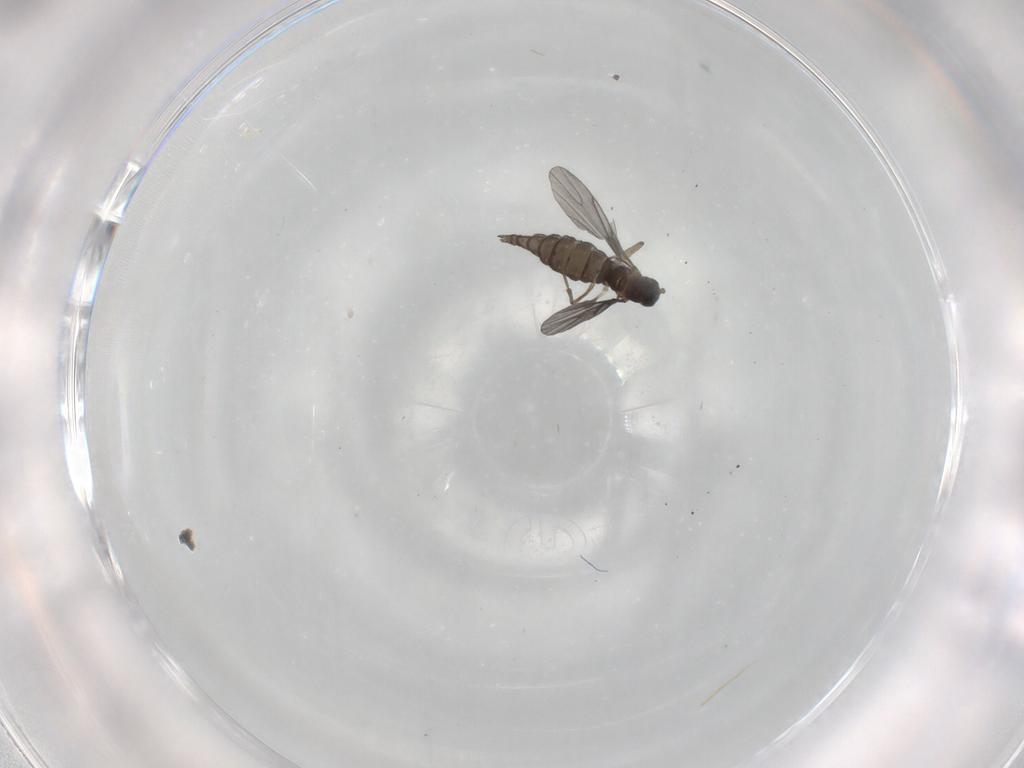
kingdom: Animalia
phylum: Arthropoda
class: Insecta
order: Diptera
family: Sciaridae
